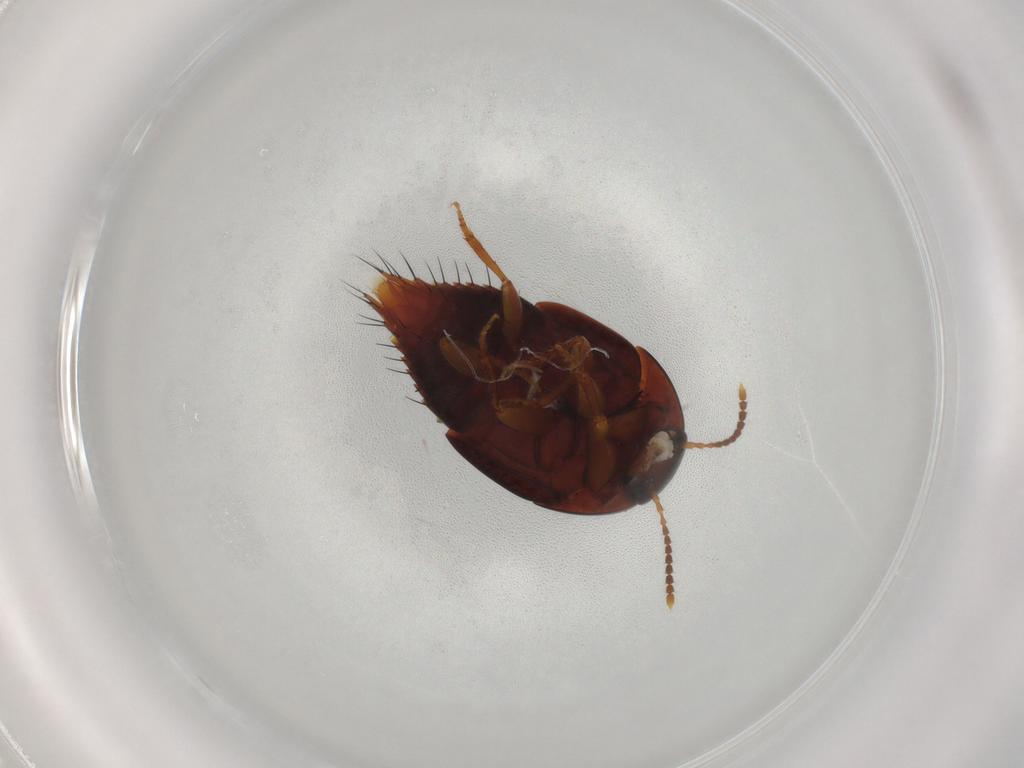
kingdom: Animalia
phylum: Arthropoda
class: Insecta
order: Coleoptera
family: Staphylinidae
